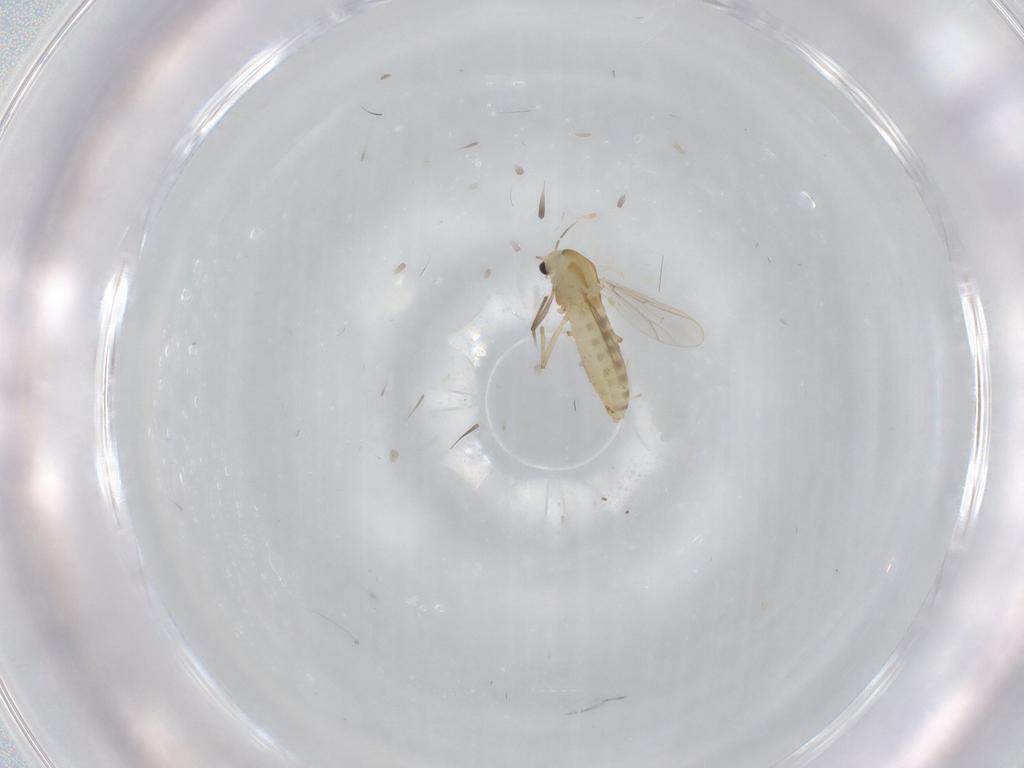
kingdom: Animalia
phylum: Arthropoda
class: Insecta
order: Diptera
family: Chironomidae
